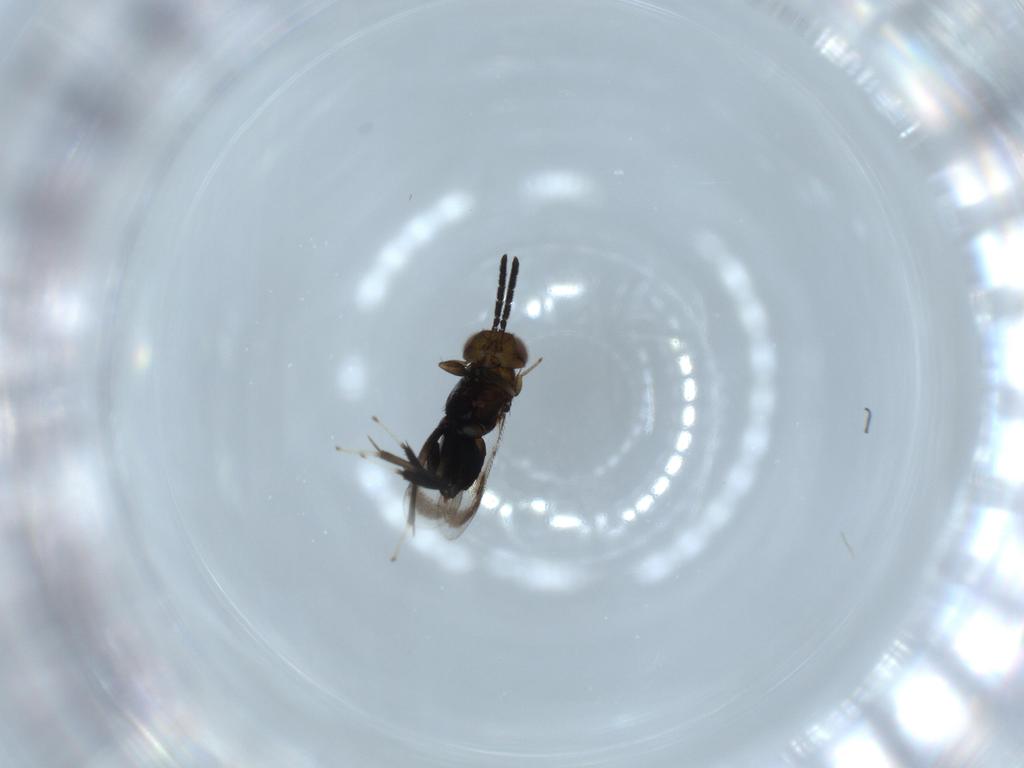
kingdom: Animalia
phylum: Arthropoda
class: Insecta
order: Hymenoptera
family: Aphelinidae
